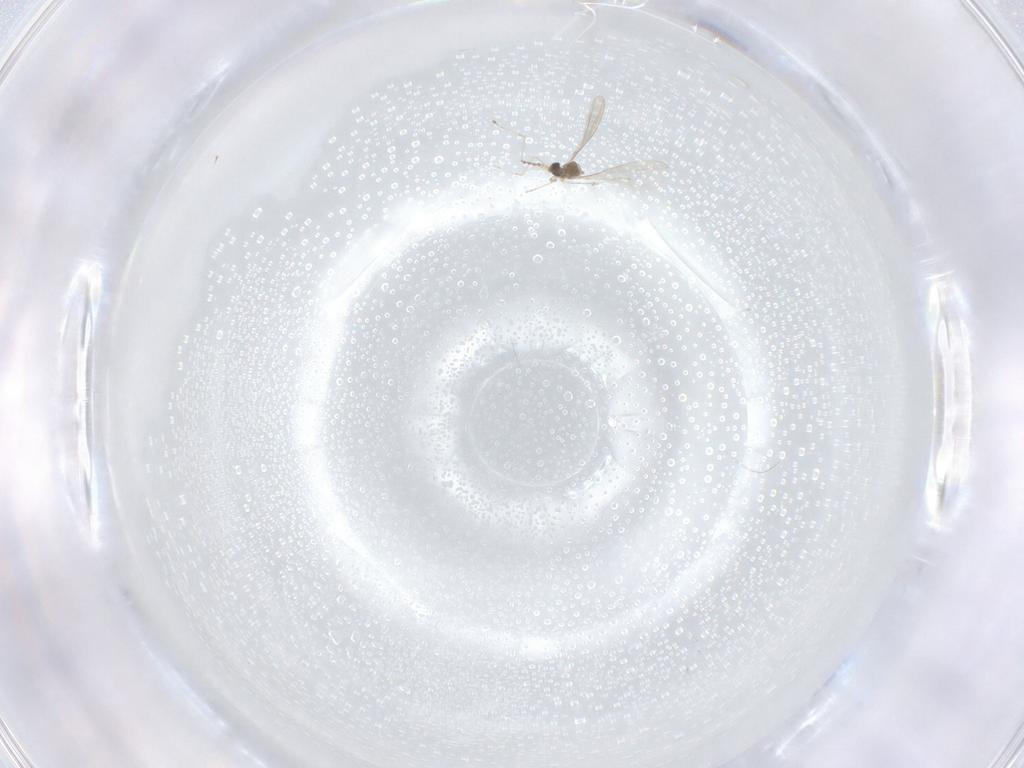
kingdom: Animalia
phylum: Arthropoda
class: Insecta
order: Diptera
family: Cecidomyiidae
